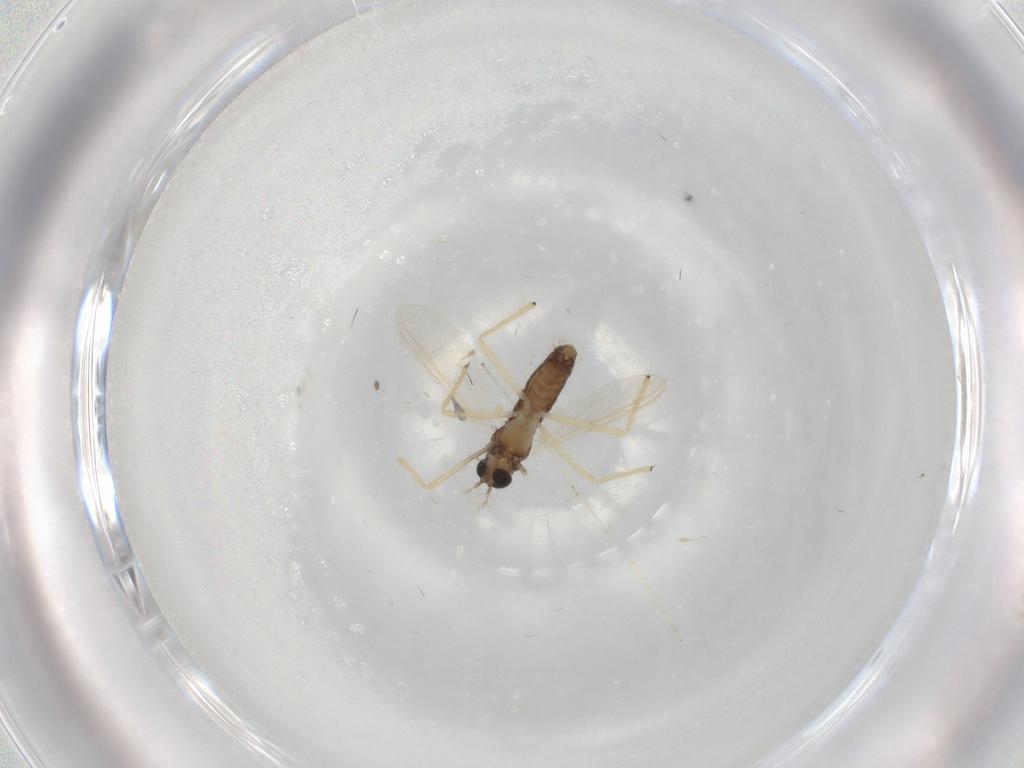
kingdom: Animalia
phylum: Arthropoda
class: Insecta
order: Diptera
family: Chironomidae
